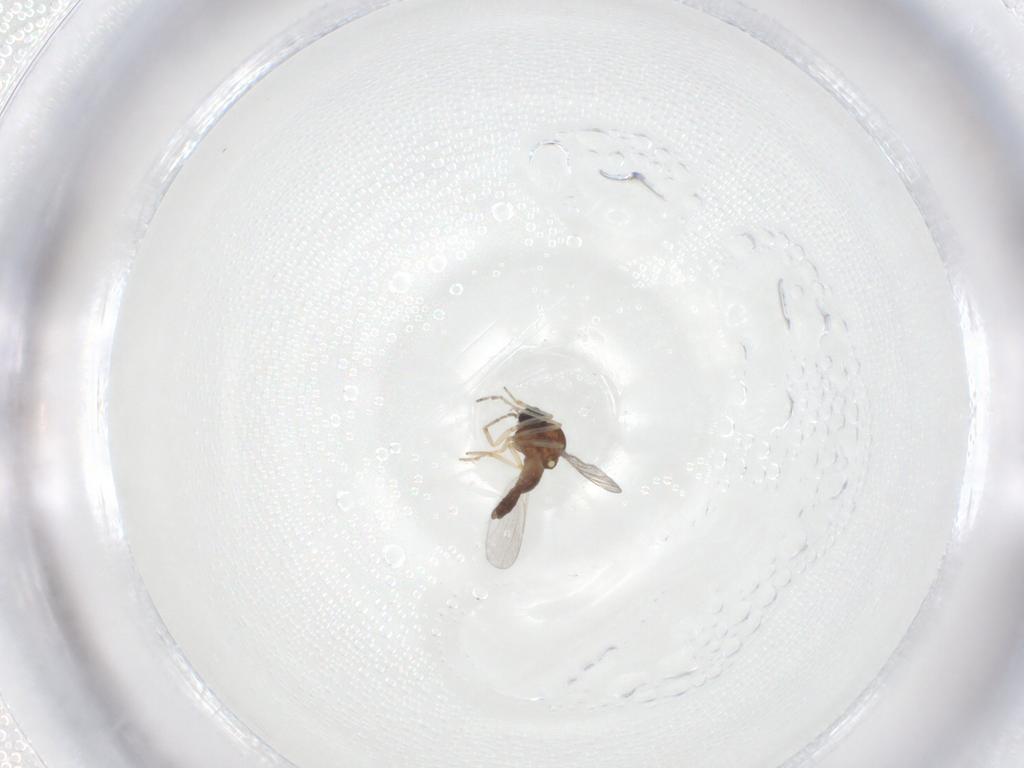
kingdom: Animalia
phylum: Arthropoda
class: Insecta
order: Diptera
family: Ceratopogonidae
